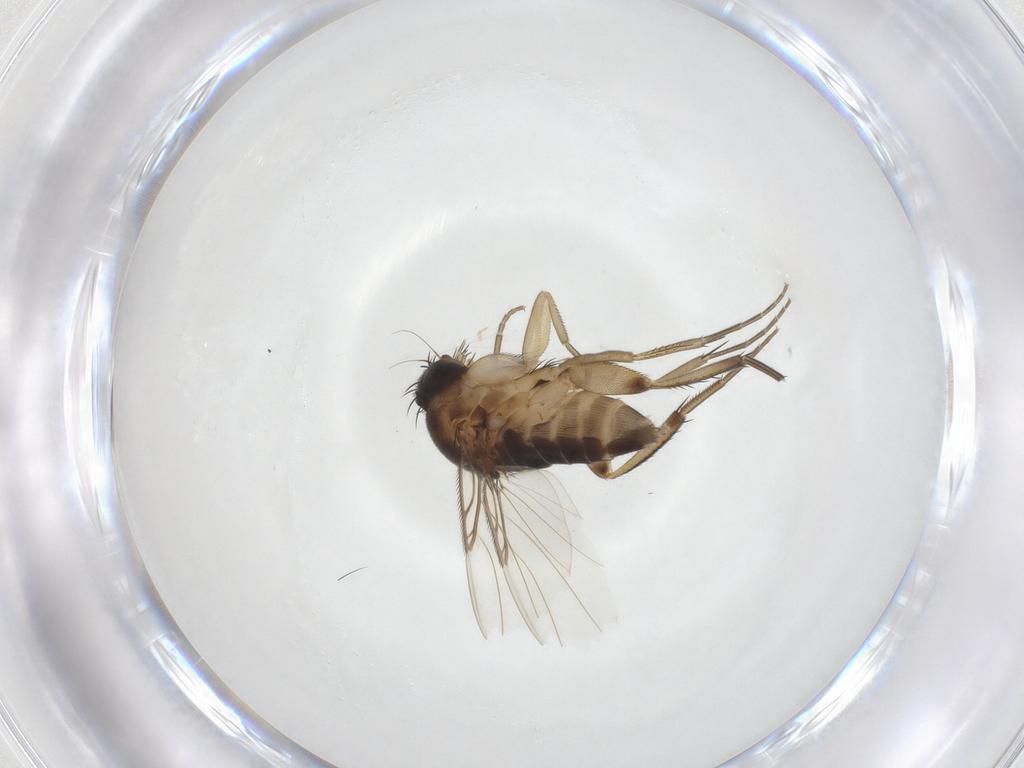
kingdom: Animalia
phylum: Arthropoda
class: Insecta
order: Diptera
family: Phoridae
